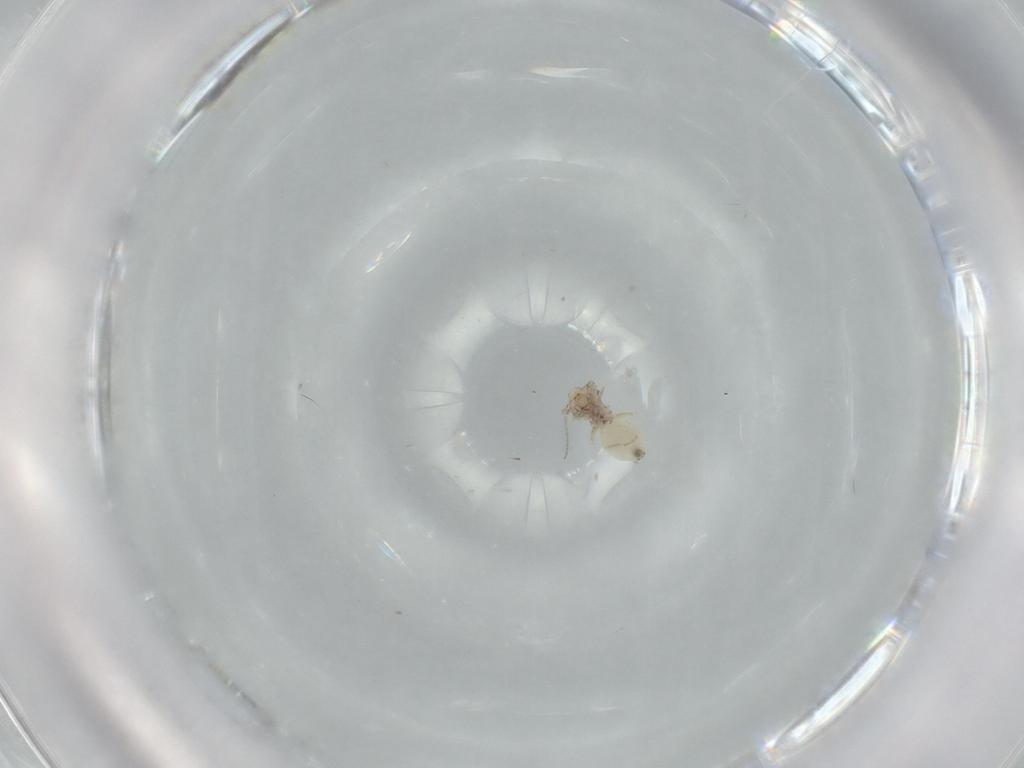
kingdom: Animalia
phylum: Arthropoda
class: Insecta
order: Psocodea
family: Lepidopsocidae
